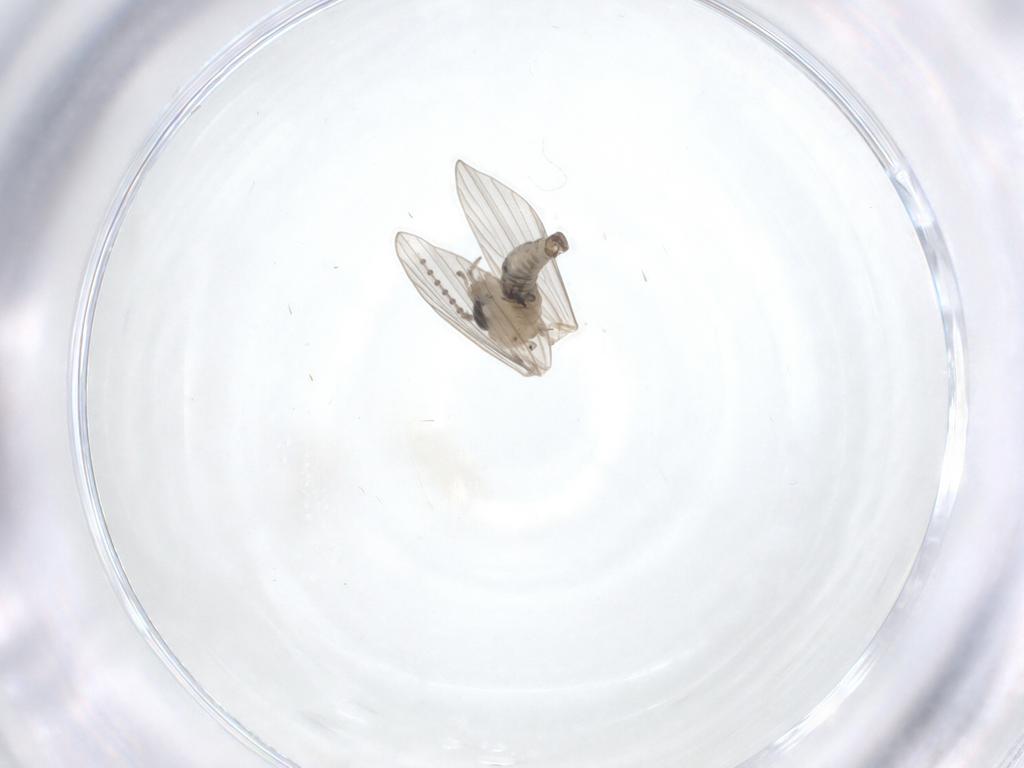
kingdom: Animalia
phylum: Arthropoda
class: Insecta
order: Diptera
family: Psychodidae
